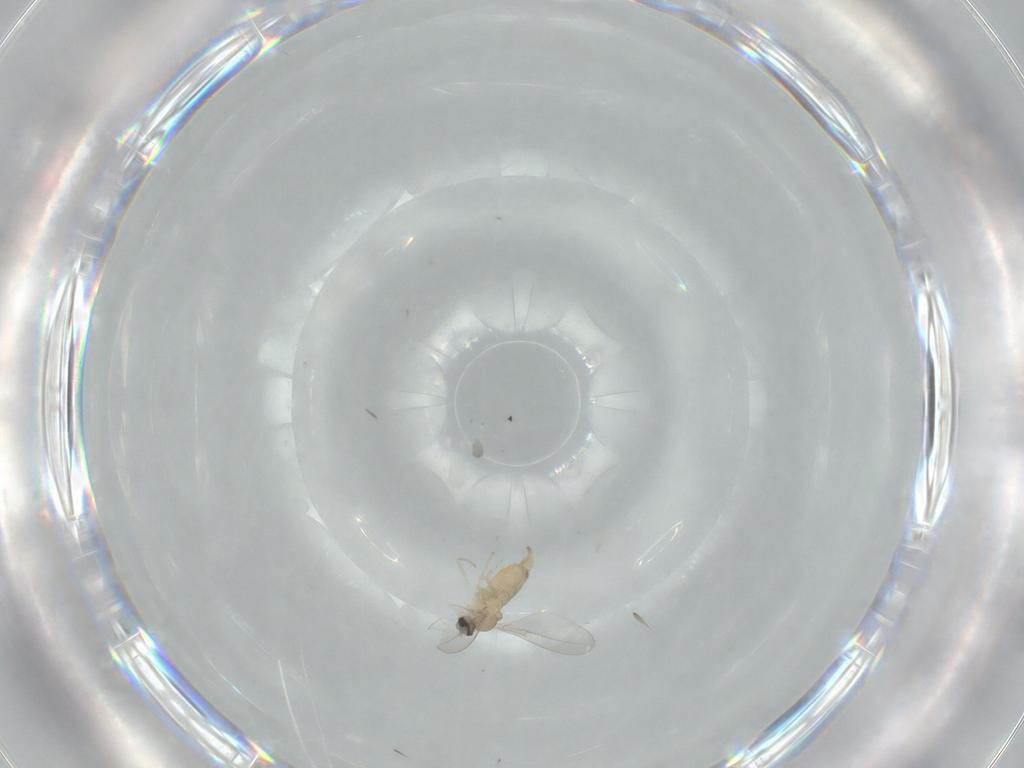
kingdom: Animalia
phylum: Arthropoda
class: Insecta
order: Diptera
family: Cecidomyiidae
